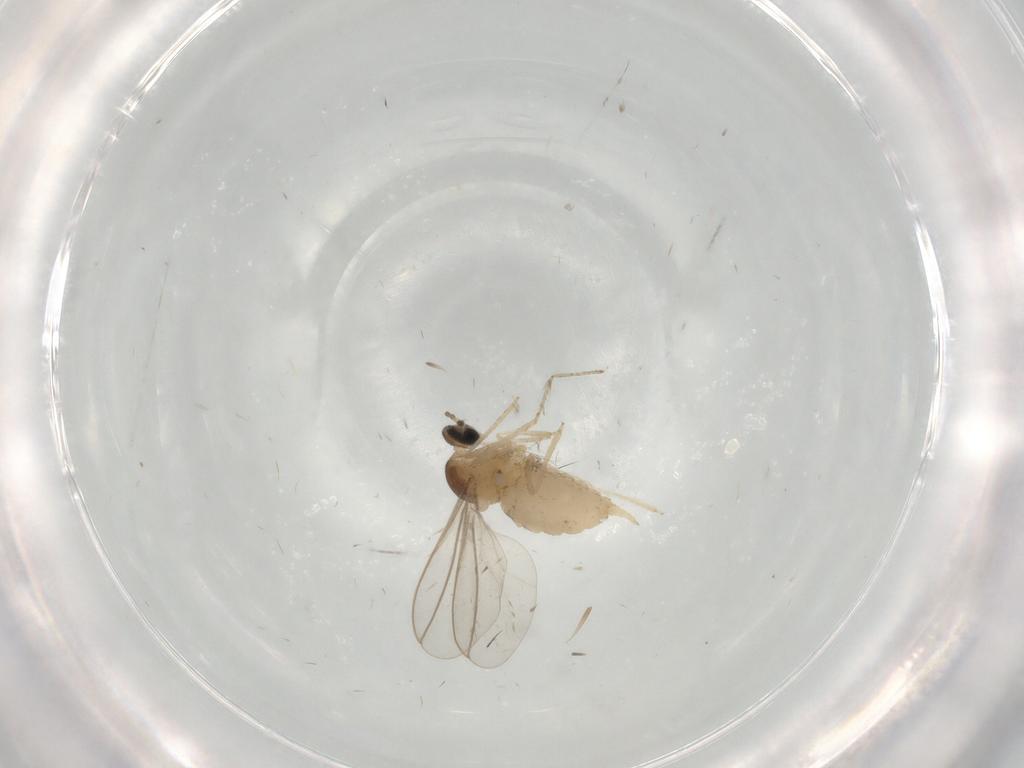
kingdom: Animalia
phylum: Arthropoda
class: Insecta
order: Diptera
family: Cecidomyiidae
